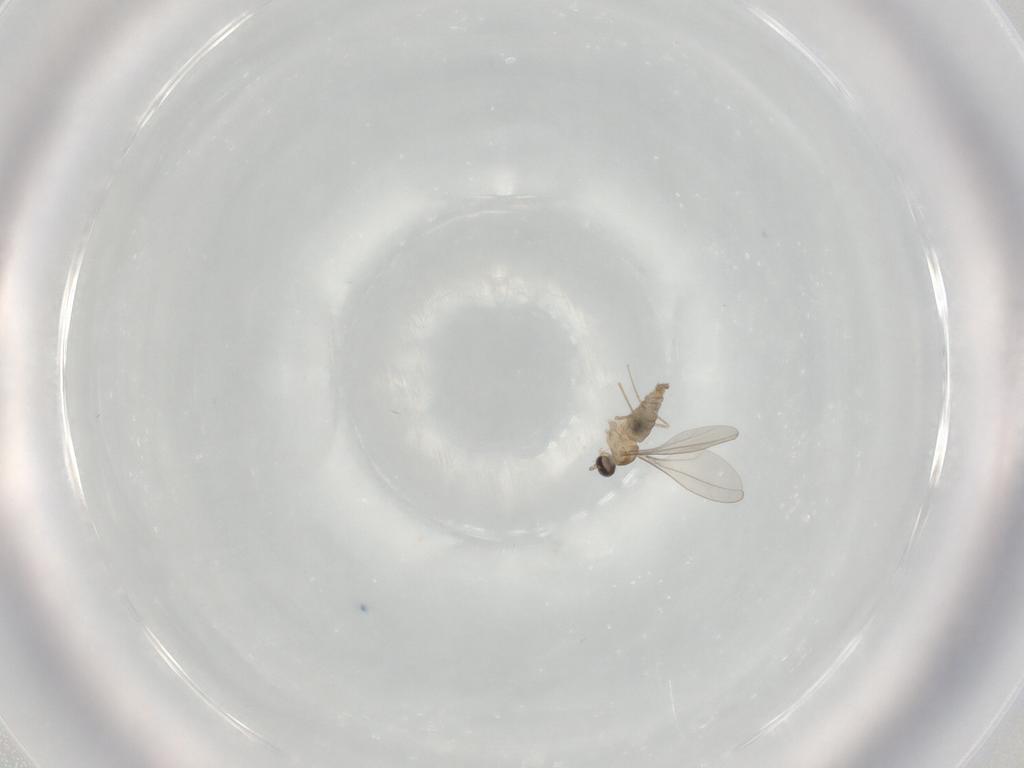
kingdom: Animalia
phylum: Arthropoda
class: Insecta
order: Diptera
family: Cecidomyiidae
